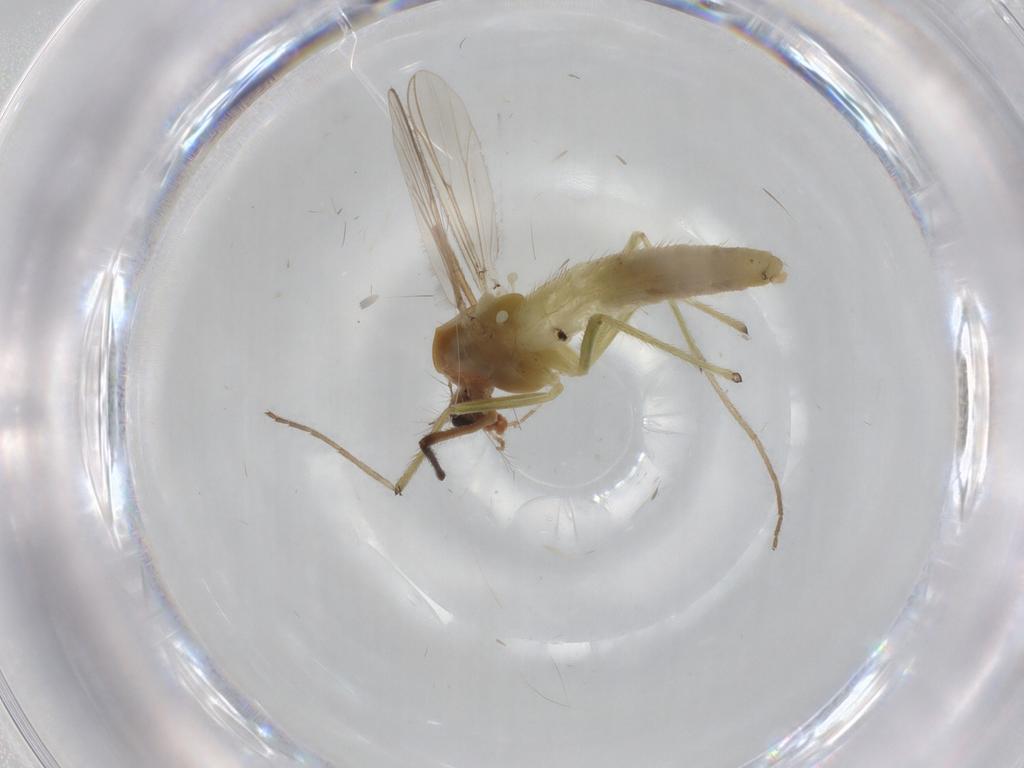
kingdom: Animalia
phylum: Arthropoda
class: Insecta
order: Diptera
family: Chironomidae
